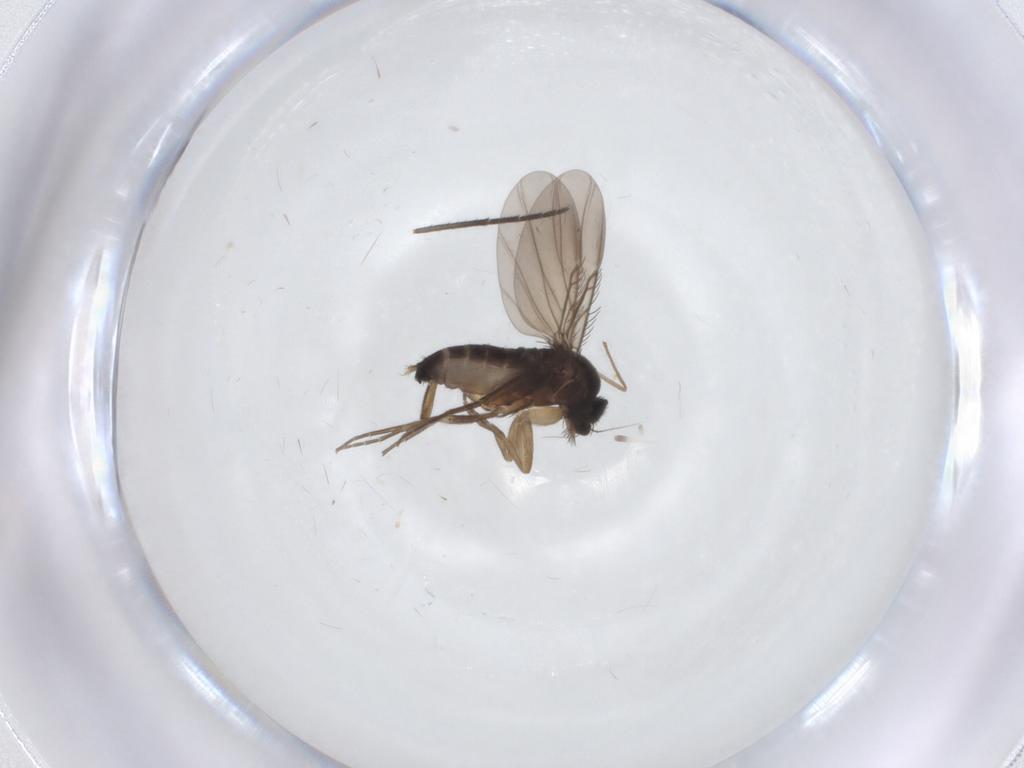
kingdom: Animalia
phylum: Arthropoda
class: Insecta
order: Diptera
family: Phoridae
